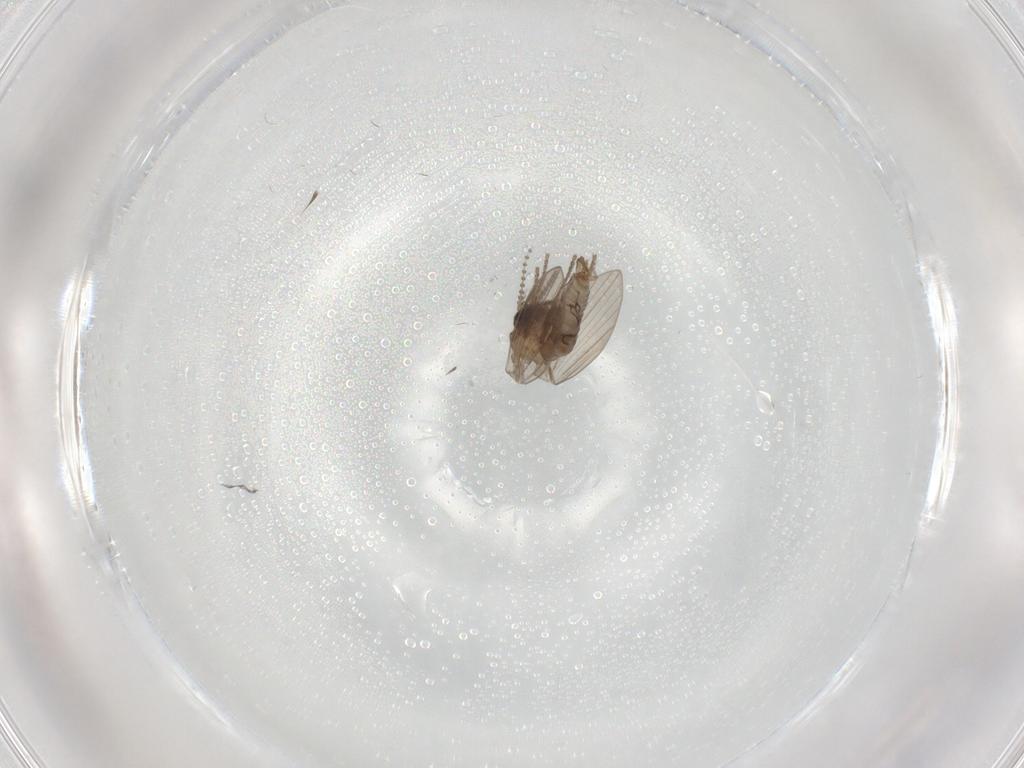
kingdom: Animalia
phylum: Arthropoda
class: Insecta
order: Diptera
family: Psychodidae
